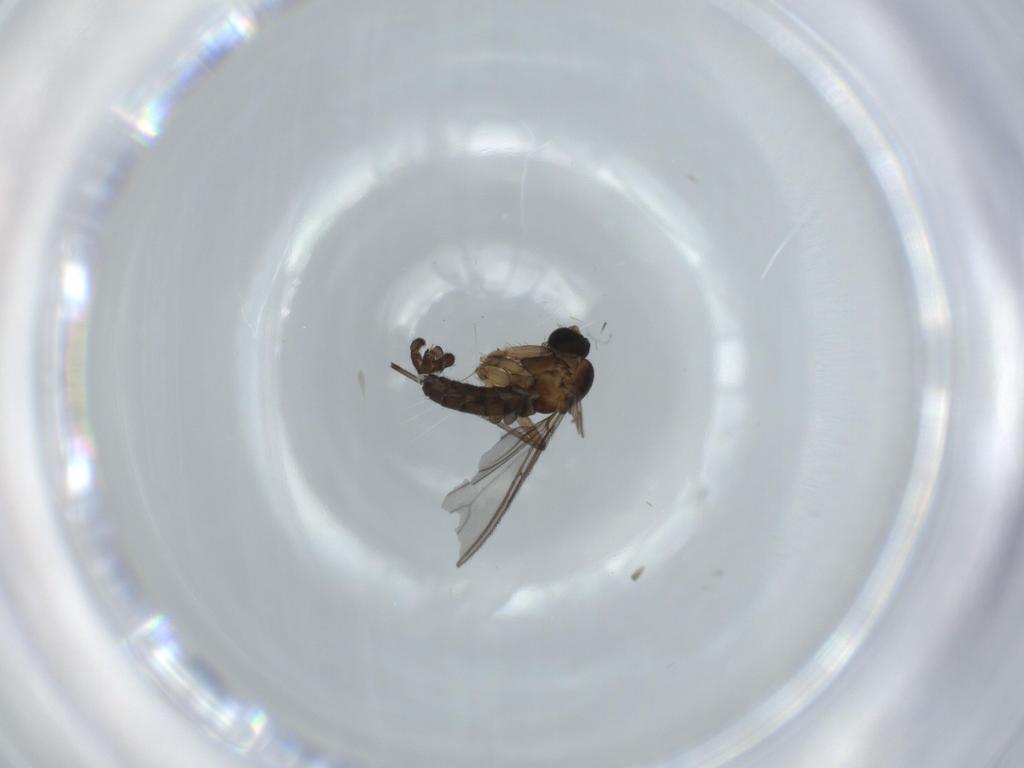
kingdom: Animalia
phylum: Arthropoda
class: Insecta
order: Diptera
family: Sciaridae
